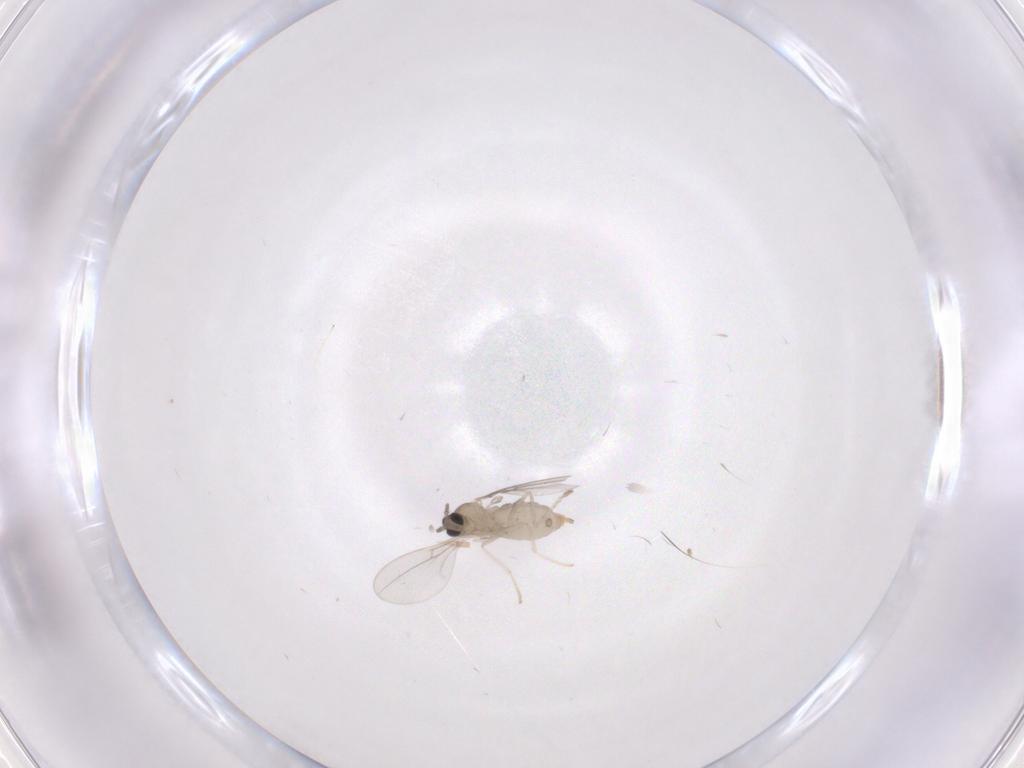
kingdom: Animalia
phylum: Arthropoda
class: Insecta
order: Diptera
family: Cecidomyiidae
